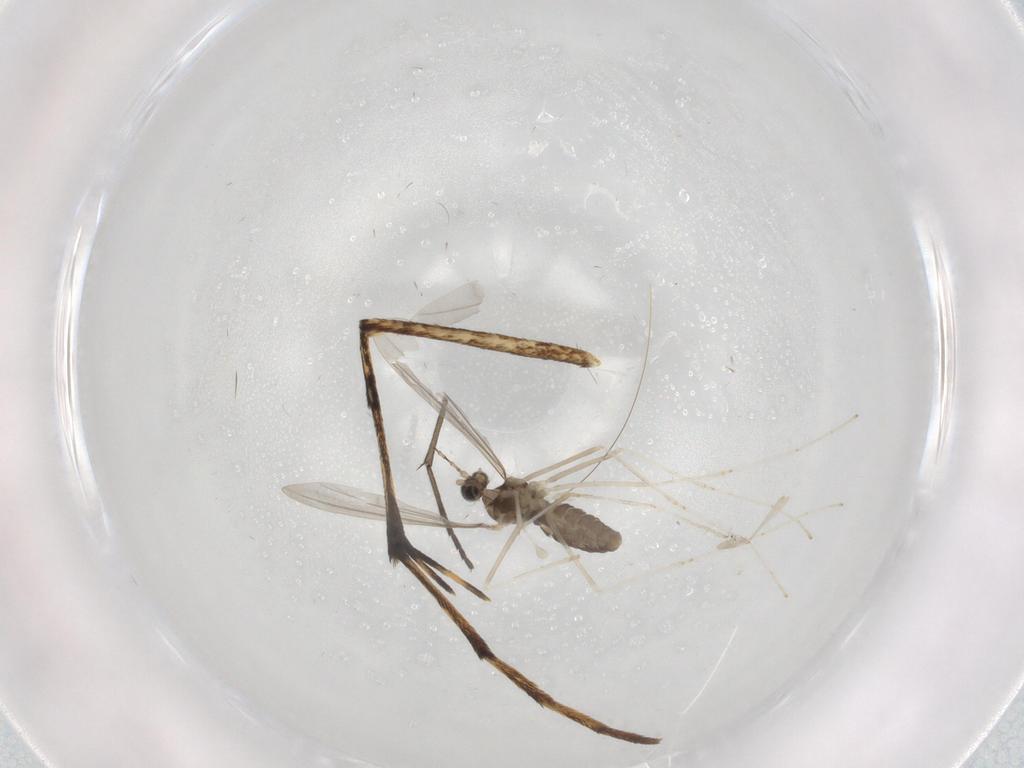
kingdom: Animalia
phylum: Arthropoda
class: Insecta
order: Diptera
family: Cecidomyiidae
